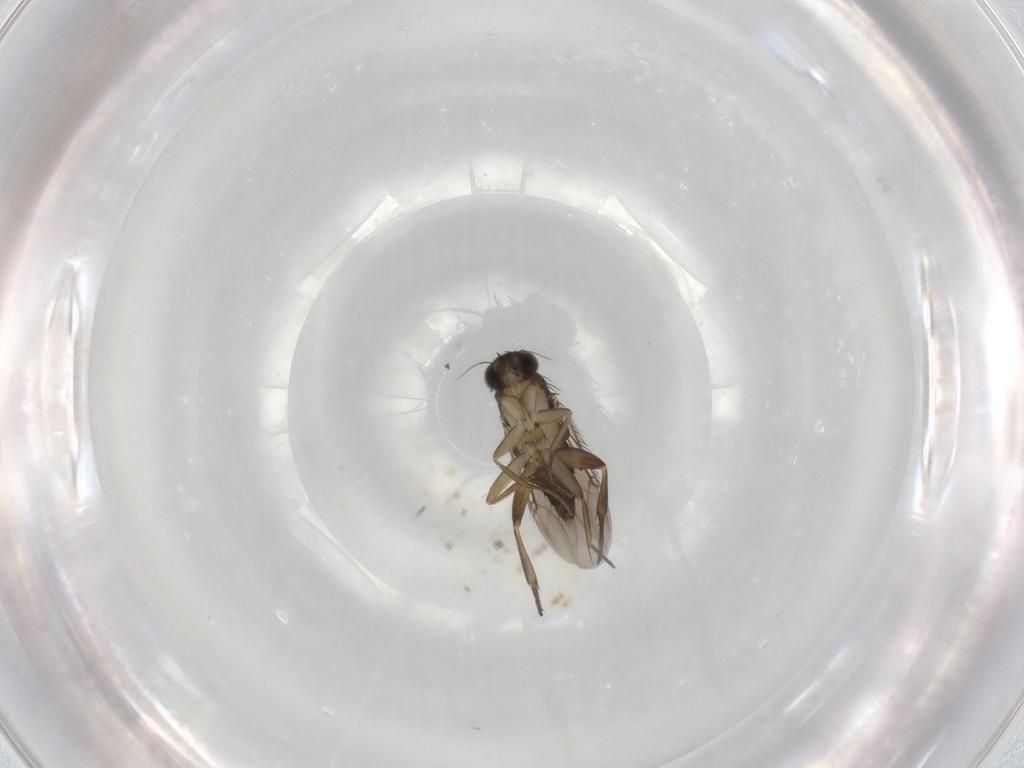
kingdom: Animalia
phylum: Arthropoda
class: Insecta
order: Diptera
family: Phoridae
